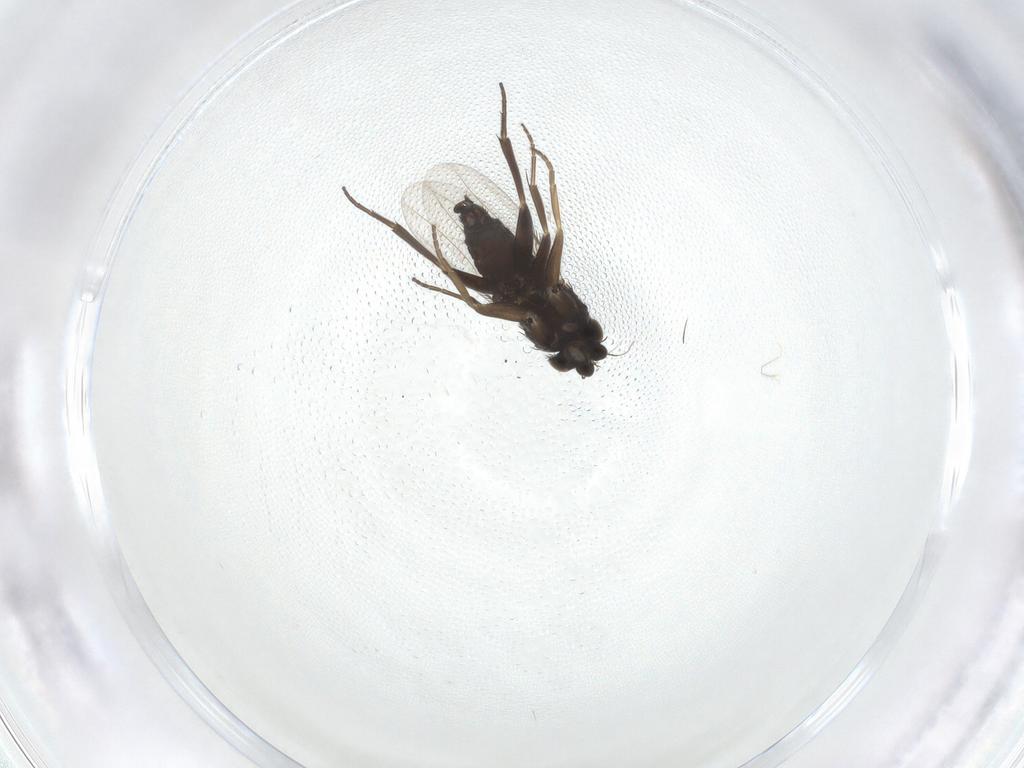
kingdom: Animalia
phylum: Arthropoda
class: Insecta
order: Diptera
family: Phoridae
